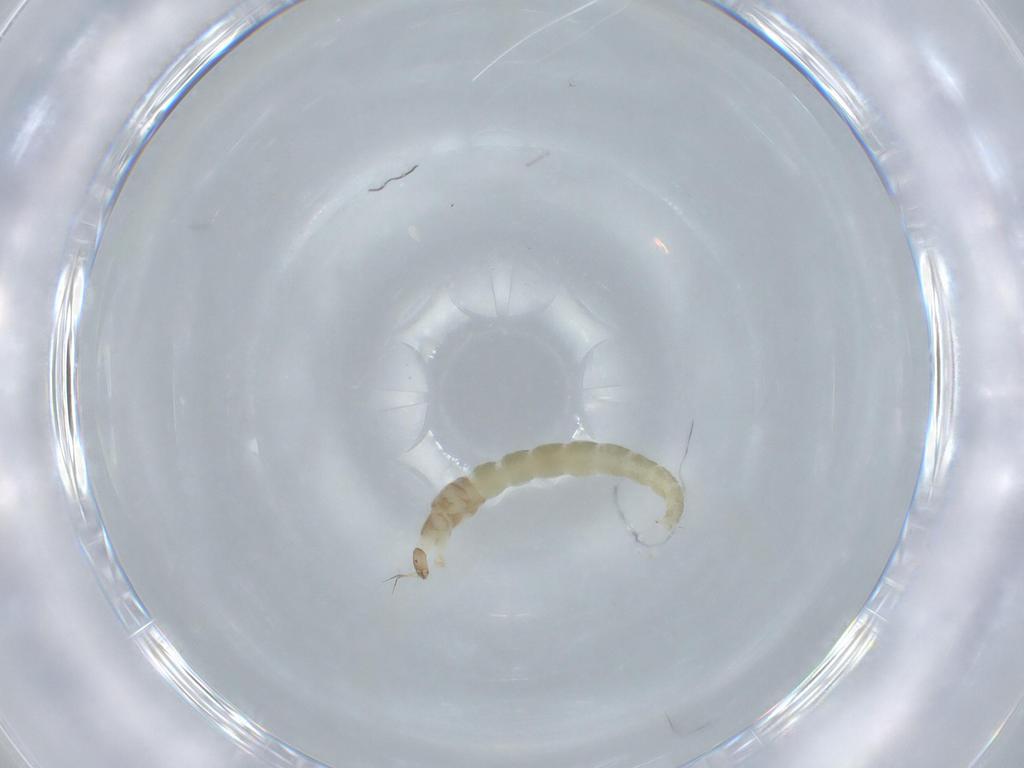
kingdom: Animalia
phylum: Arthropoda
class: Insecta
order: Diptera
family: Chironomidae
